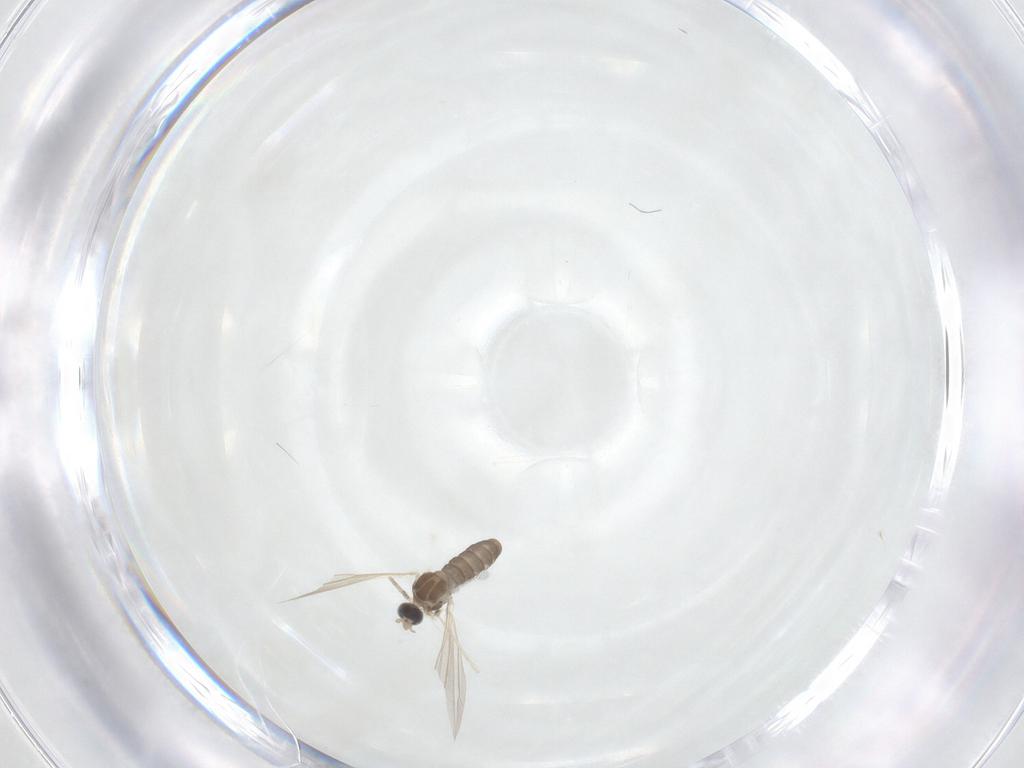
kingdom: Animalia
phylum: Arthropoda
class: Insecta
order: Diptera
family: Cecidomyiidae
